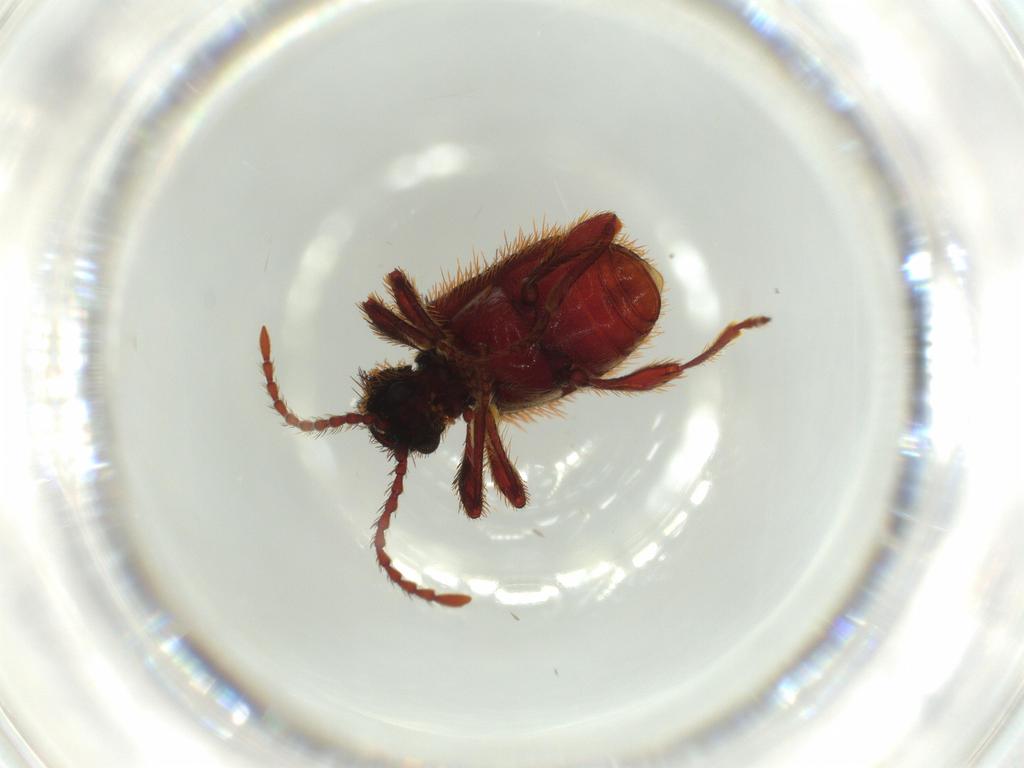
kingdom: Animalia
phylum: Arthropoda
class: Insecta
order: Coleoptera
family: Ptinidae
